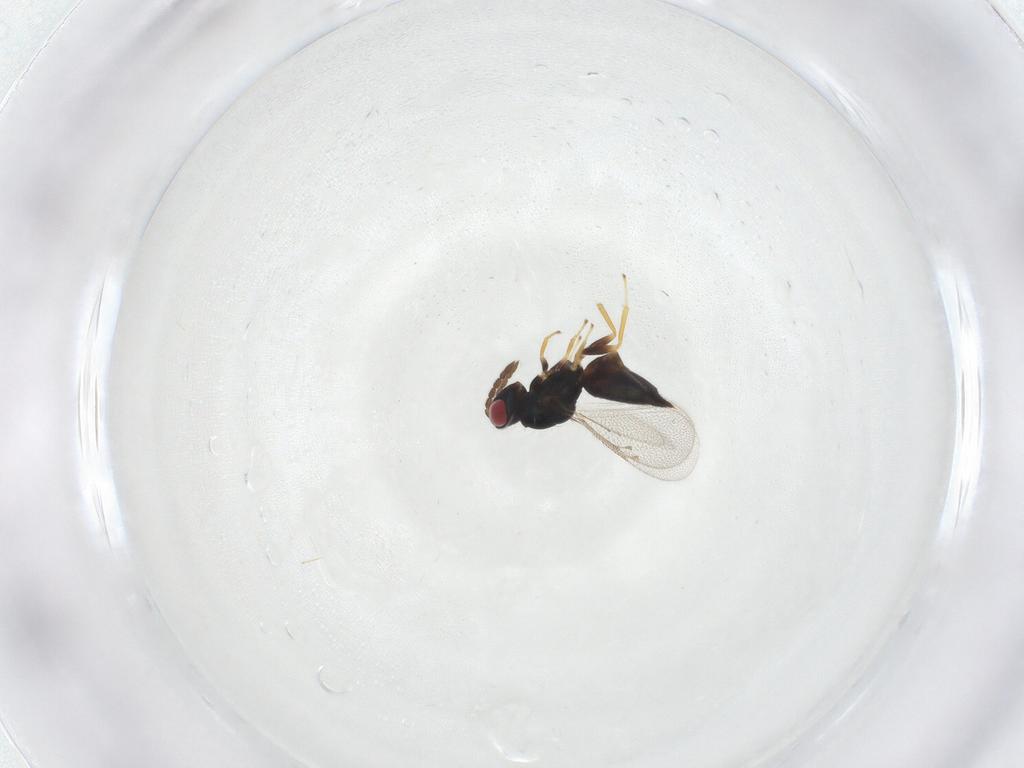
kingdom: Animalia
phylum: Arthropoda
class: Insecta
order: Hymenoptera
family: Eulophidae
